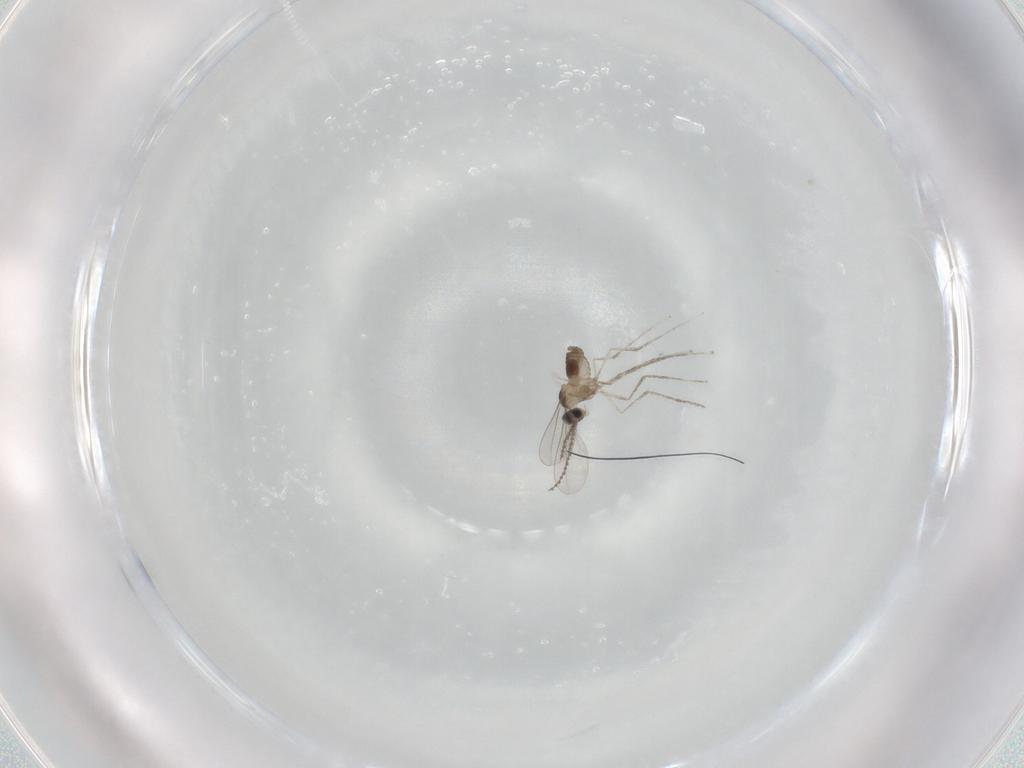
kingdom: Animalia
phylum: Arthropoda
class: Insecta
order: Diptera
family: Cecidomyiidae
